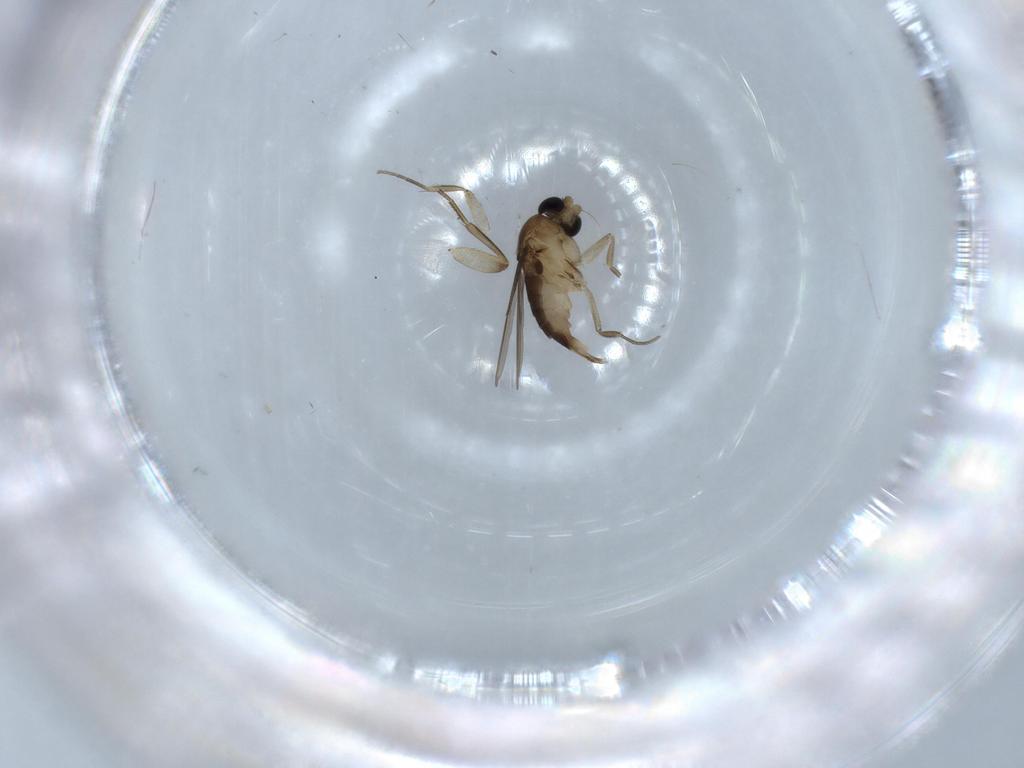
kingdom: Animalia
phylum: Arthropoda
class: Insecta
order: Diptera
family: Phoridae
